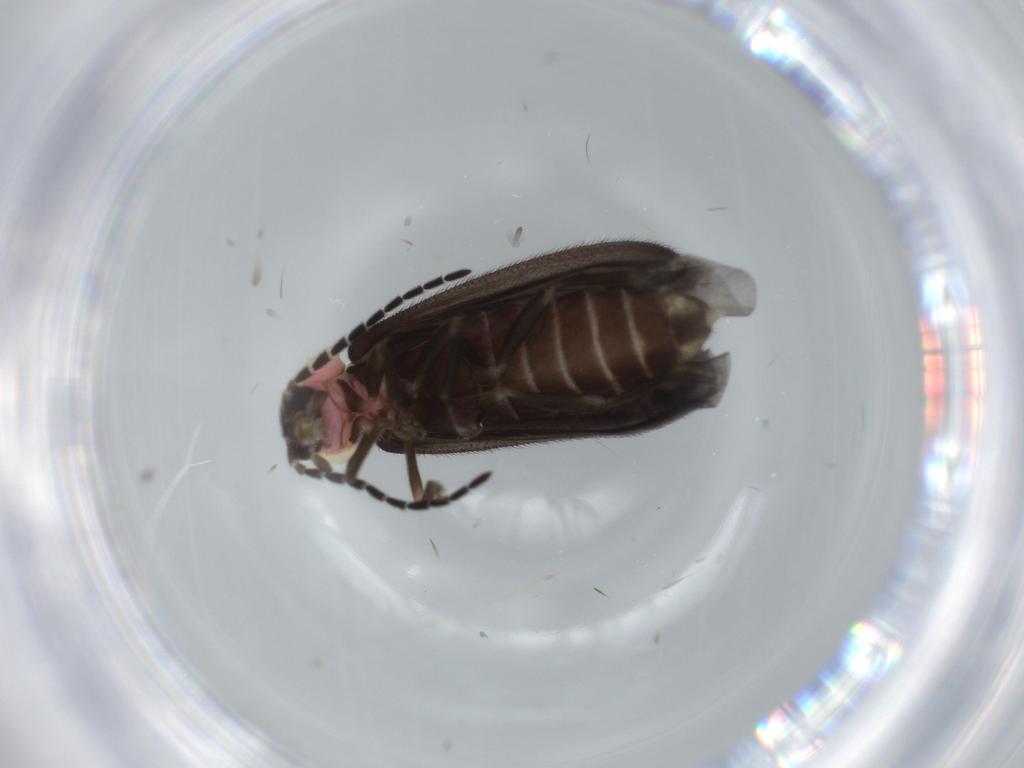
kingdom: Animalia
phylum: Arthropoda
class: Insecta
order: Coleoptera
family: Lampyridae
